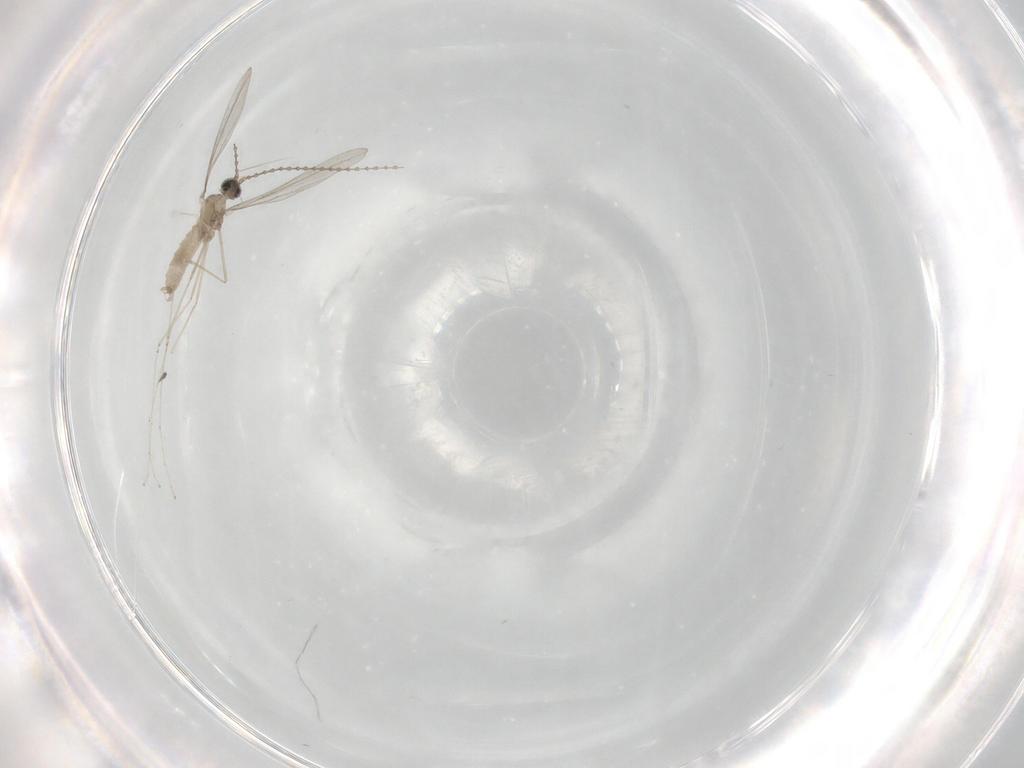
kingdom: Animalia
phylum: Arthropoda
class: Insecta
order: Diptera
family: Cecidomyiidae
